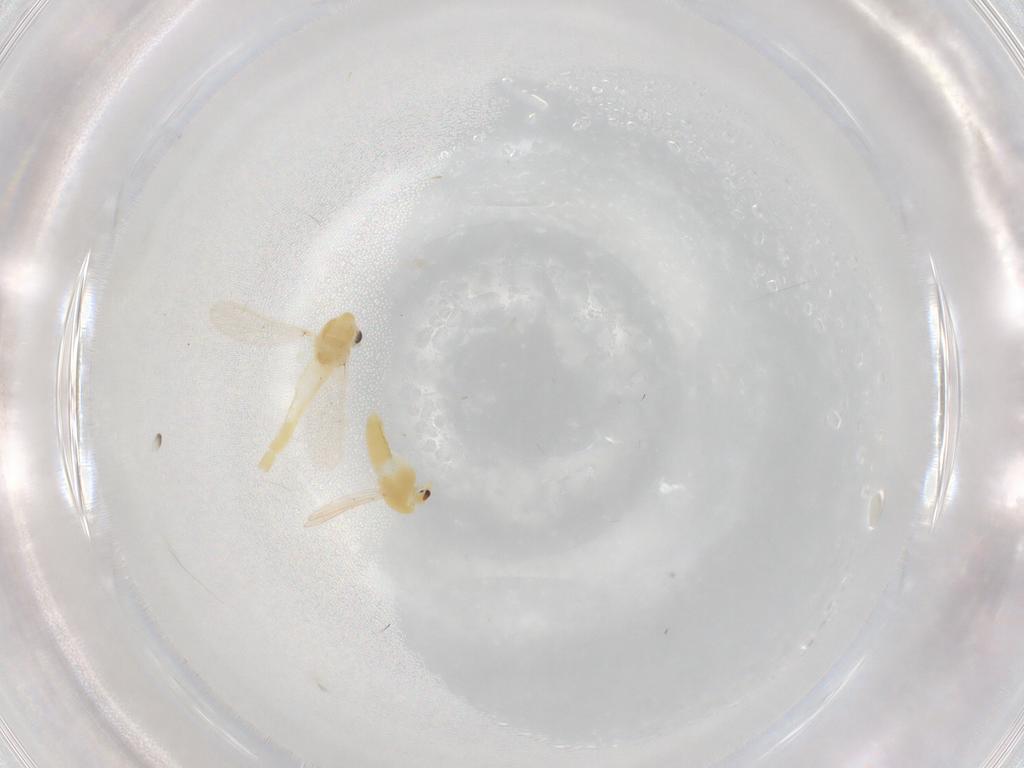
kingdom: Animalia
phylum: Arthropoda
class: Insecta
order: Diptera
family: Chironomidae
